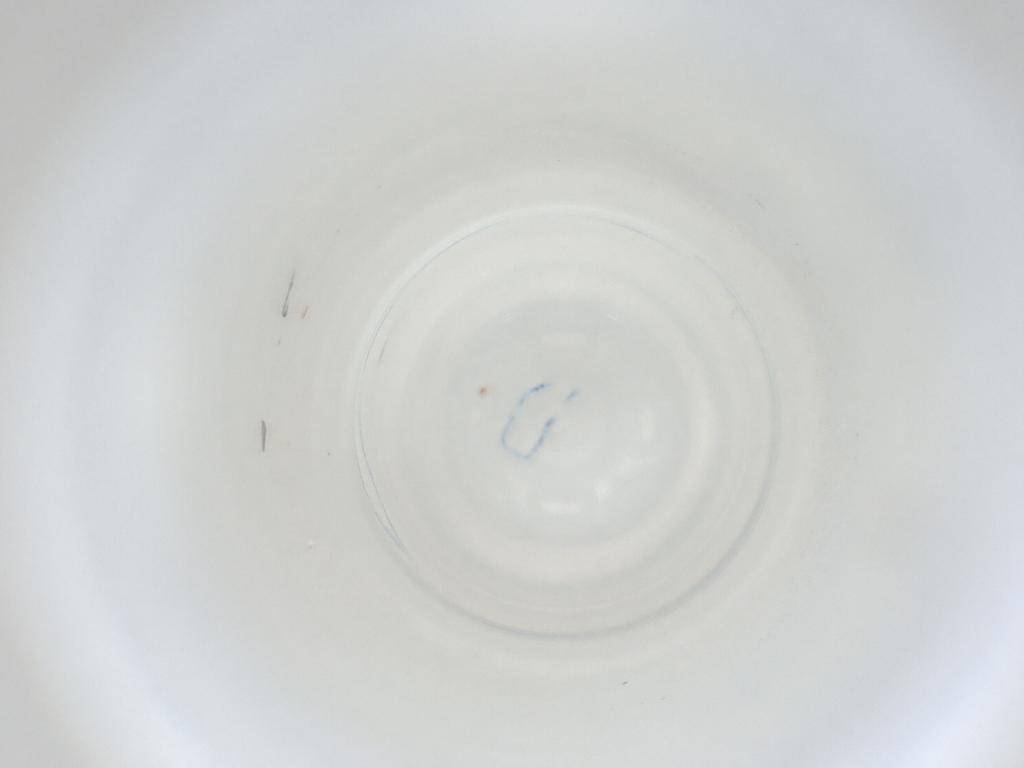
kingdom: Animalia
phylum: Arthropoda
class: Insecta
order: Diptera
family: Cecidomyiidae
